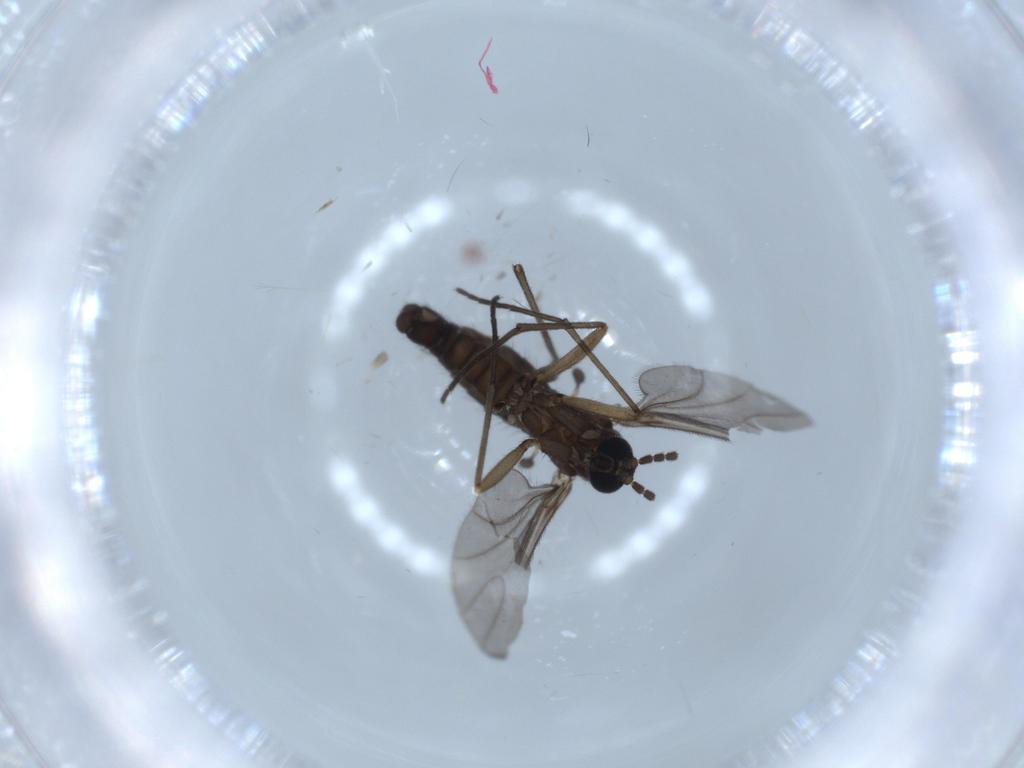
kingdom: Animalia
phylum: Arthropoda
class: Insecta
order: Diptera
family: Sciaridae
